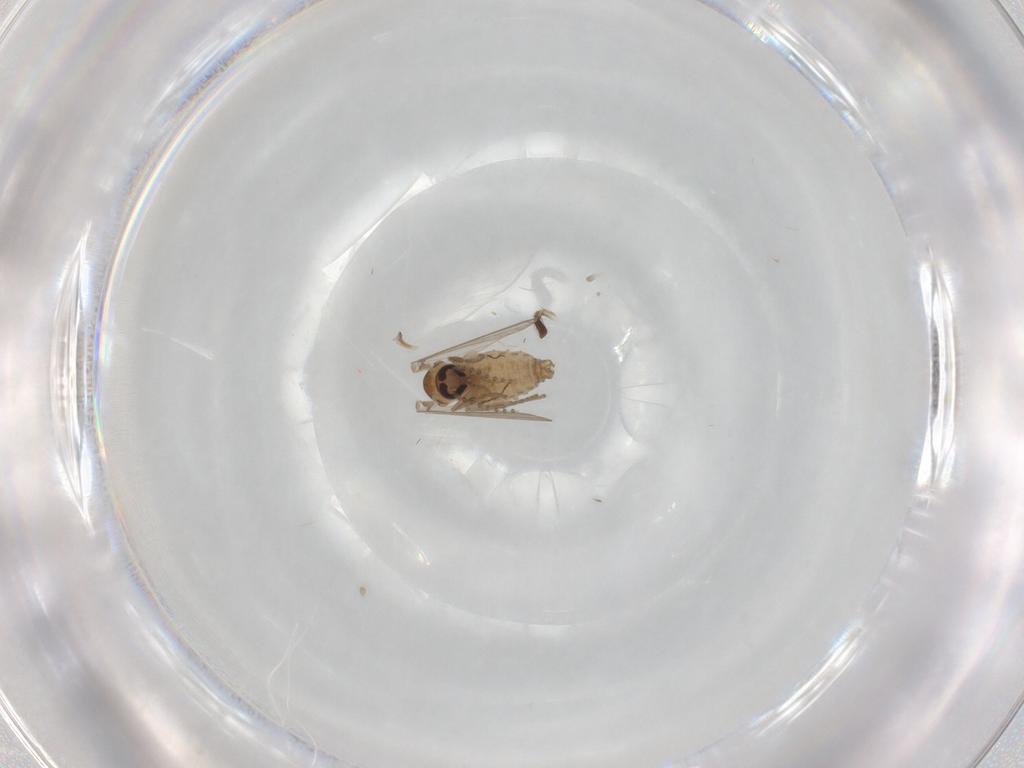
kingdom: Animalia
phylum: Arthropoda
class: Insecta
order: Diptera
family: Psychodidae
